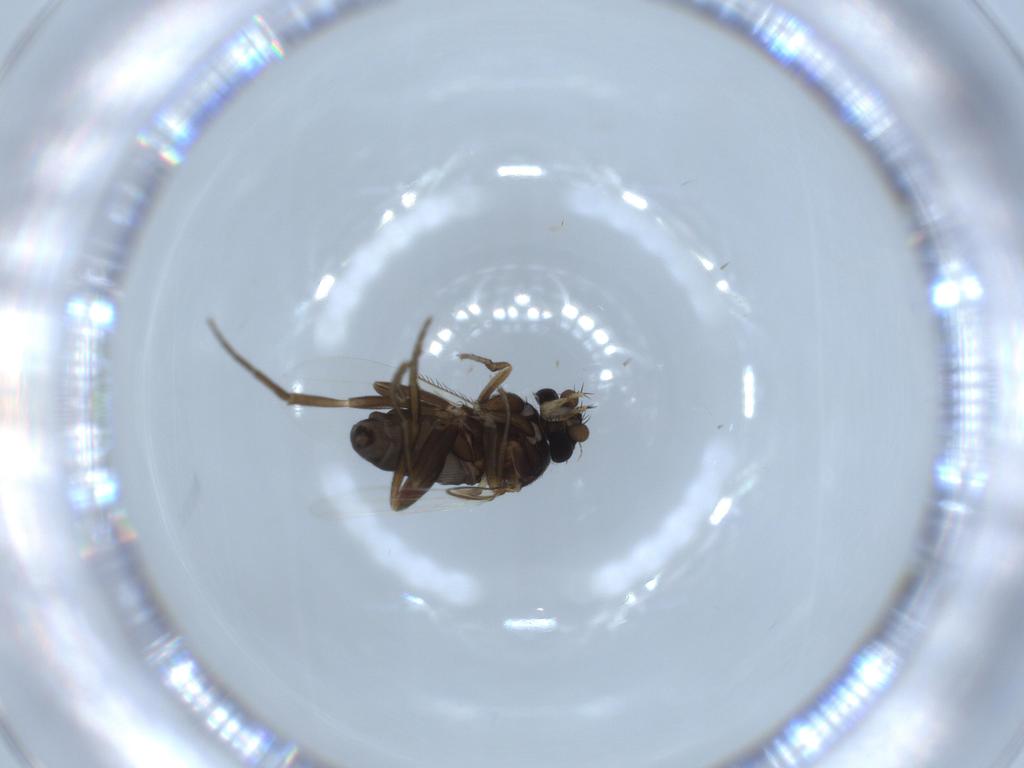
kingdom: Animalia
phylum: Arthropoda
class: Insecta
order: Diptera
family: Phoridae
